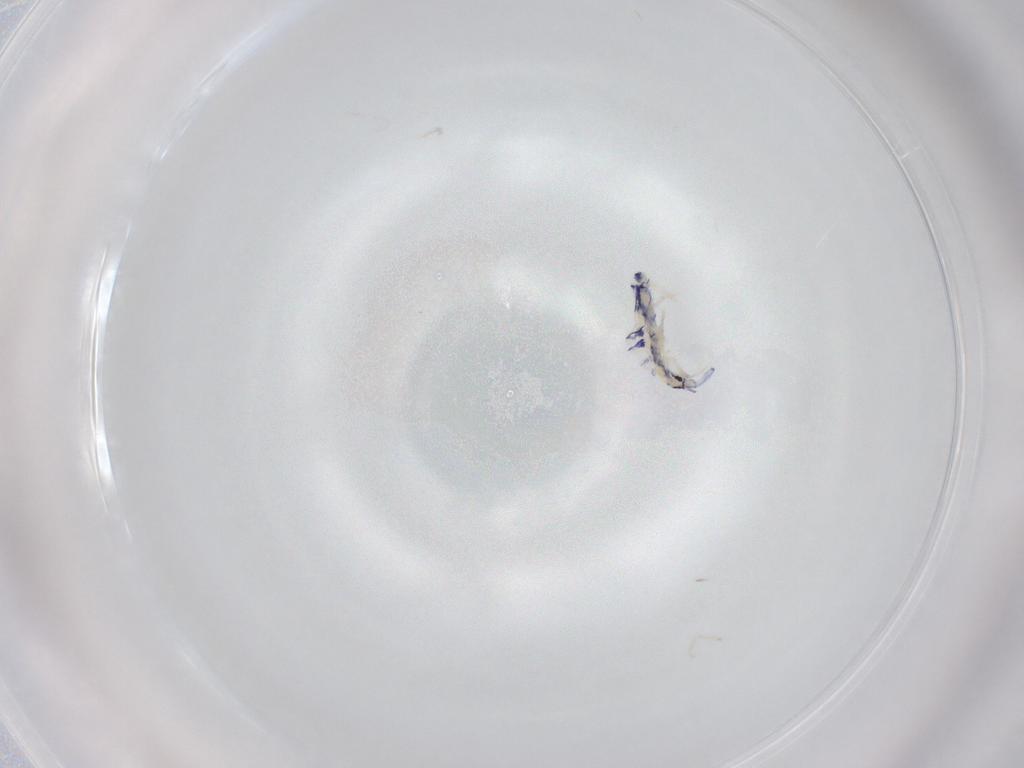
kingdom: Animalia
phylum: Arthropoda
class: Collembola
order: Entomobryomorpha
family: Entomobryidae
